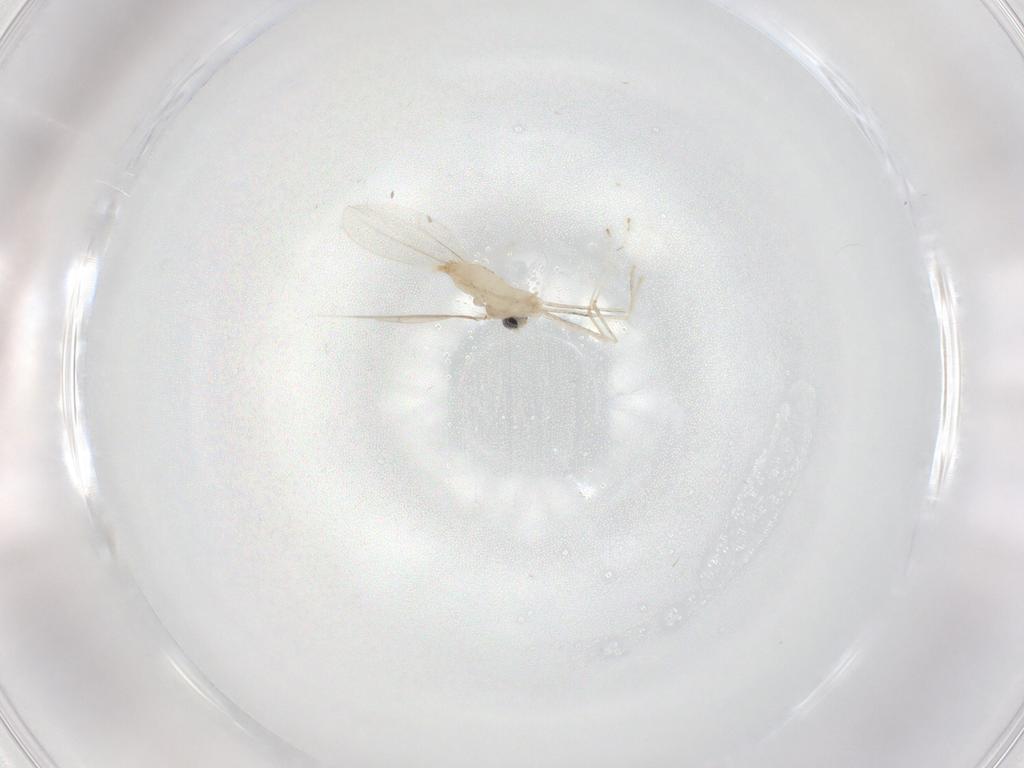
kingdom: Animalia
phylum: Arthropoda
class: Insecta
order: Diptera
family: Cecidomyiidae
